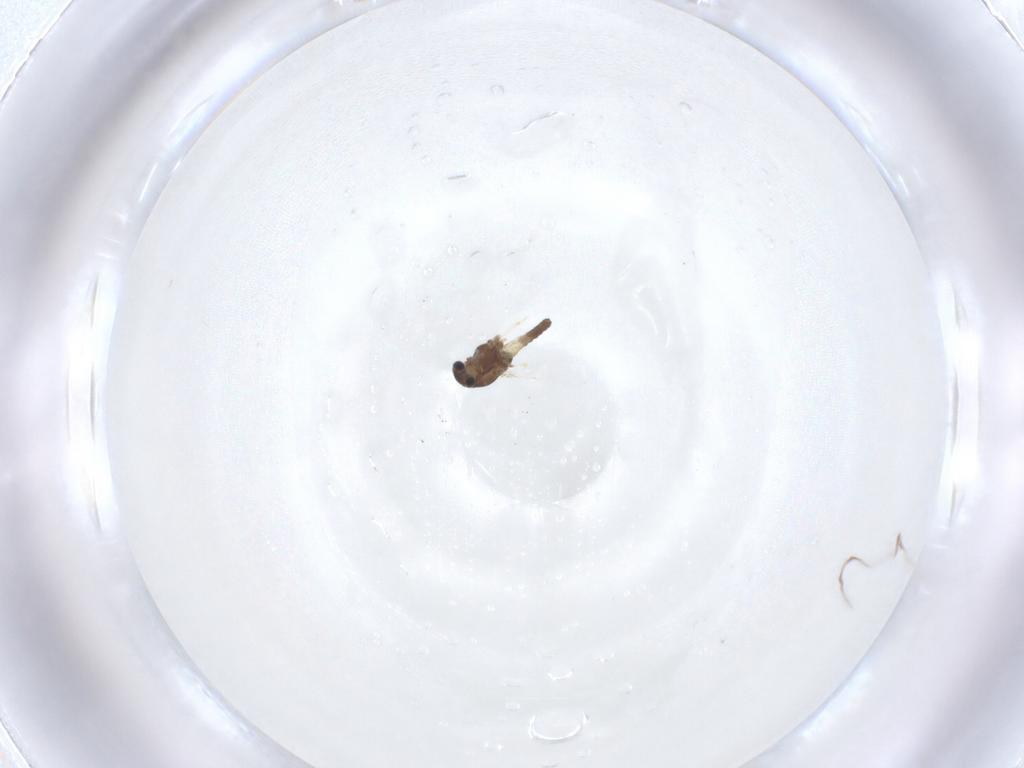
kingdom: Animalia
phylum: Arthropoda
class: Insecta
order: Diptera
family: Chironomidae
